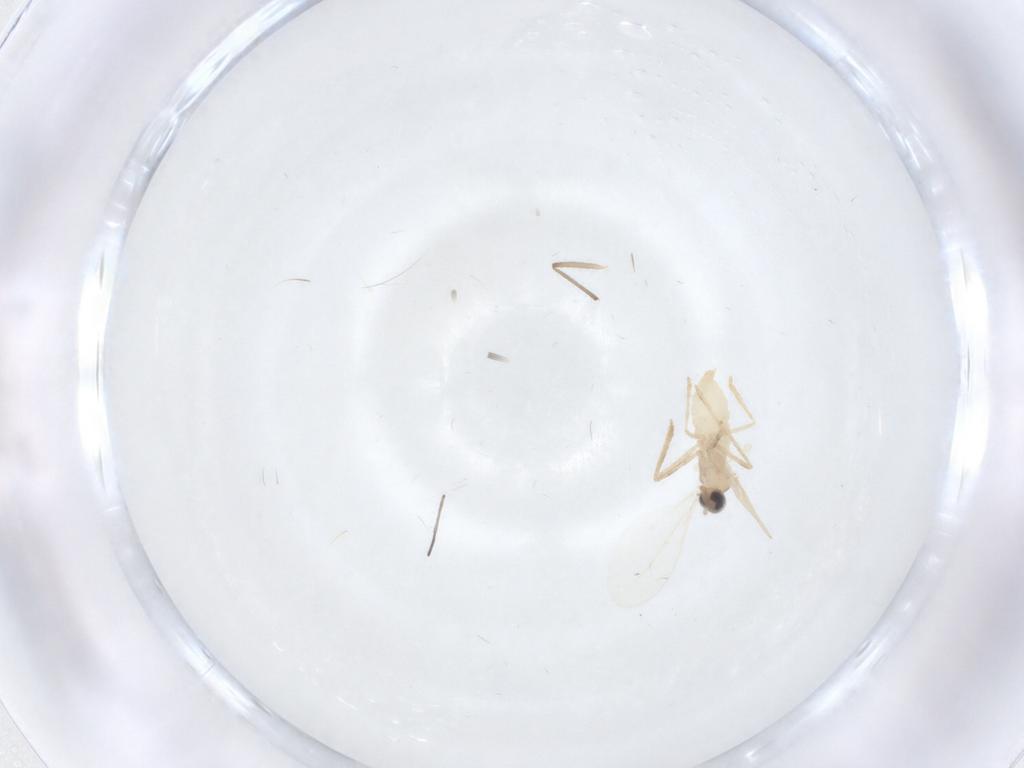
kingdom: Animalia
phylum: Arthropoda
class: Insecta
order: Diptera
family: Cecidomyiidae
